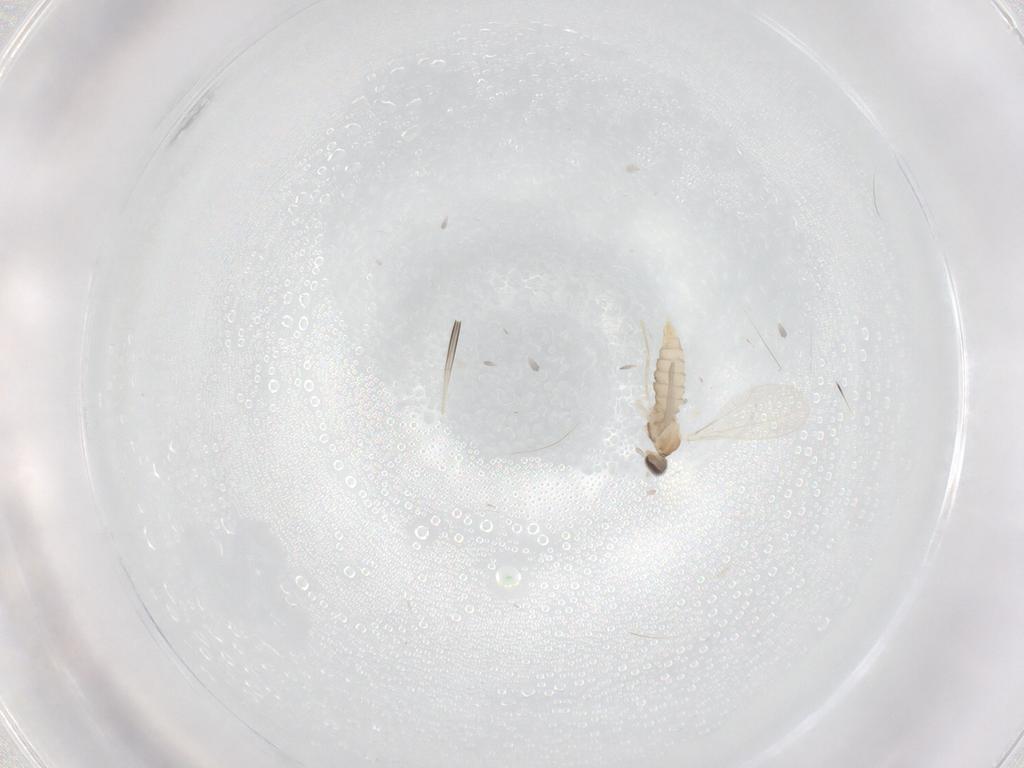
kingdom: Animalia
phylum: Arthropoda
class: Insecta
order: Diptera
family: Cecidomyiidae
